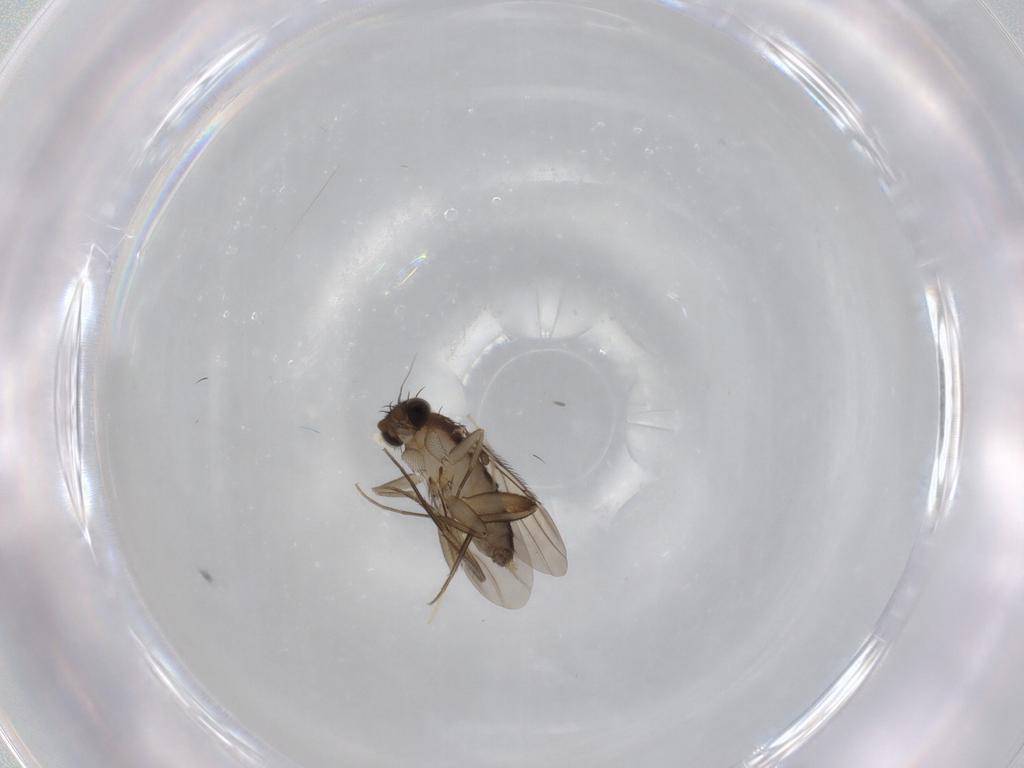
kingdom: Animalia
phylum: Arthropoda
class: Insecta
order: Diptera
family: Phoridae
